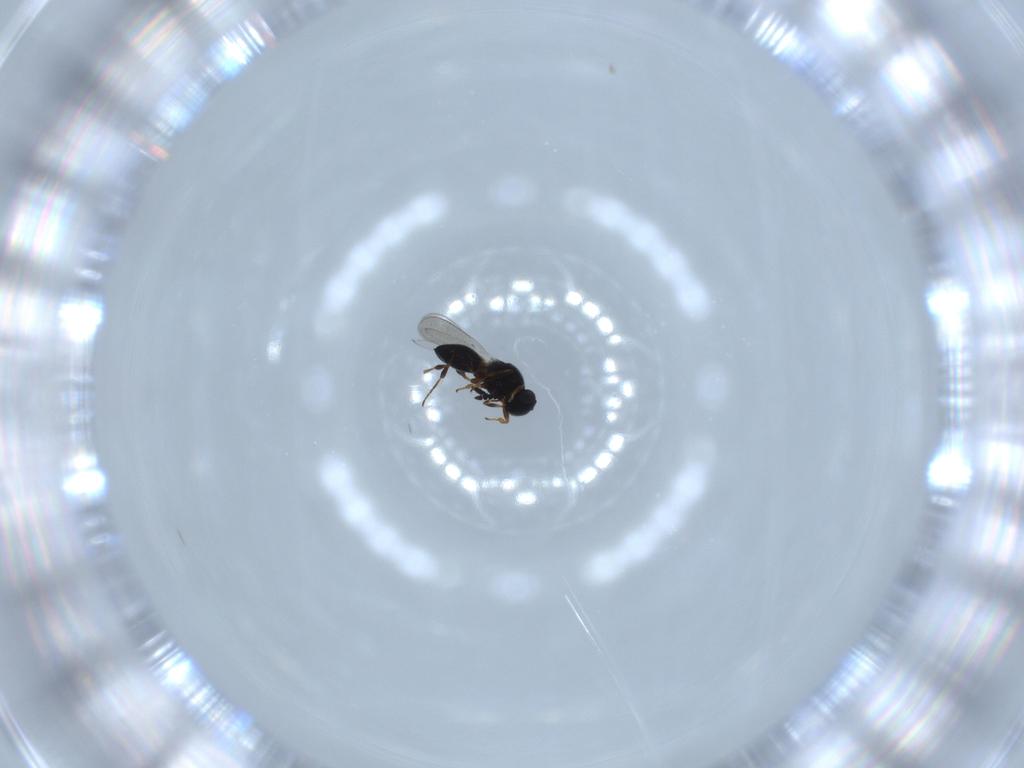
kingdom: Animalia
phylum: Arthropoda
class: Insecta
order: Hymenoptera
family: Platygastridae
